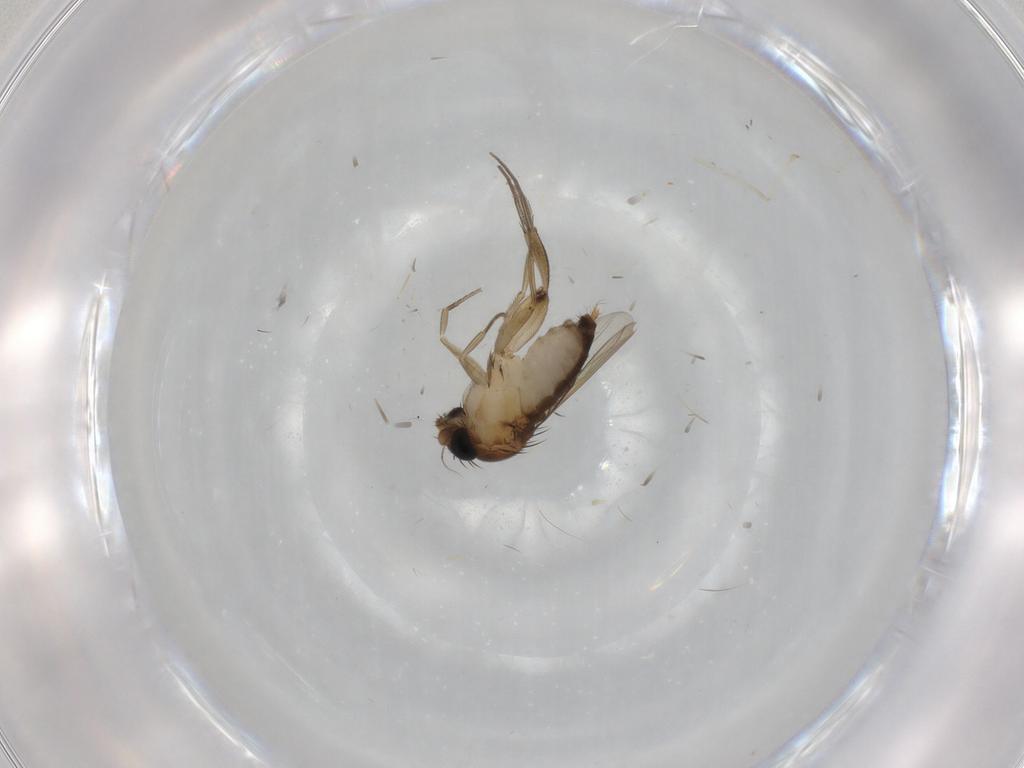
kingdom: Animalia
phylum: Arthropoda
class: Insecta
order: Diptera
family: Phoridae
